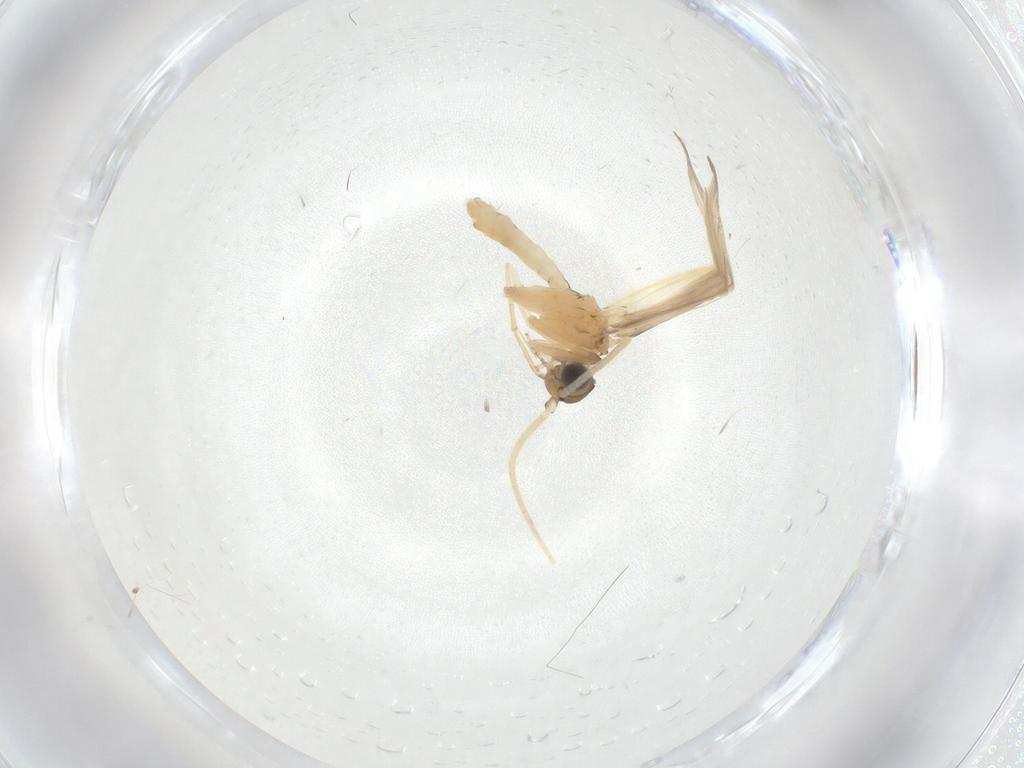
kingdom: Animalia
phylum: Arthropoda
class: Insecta
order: Trichoptera
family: Hydroptilidae
